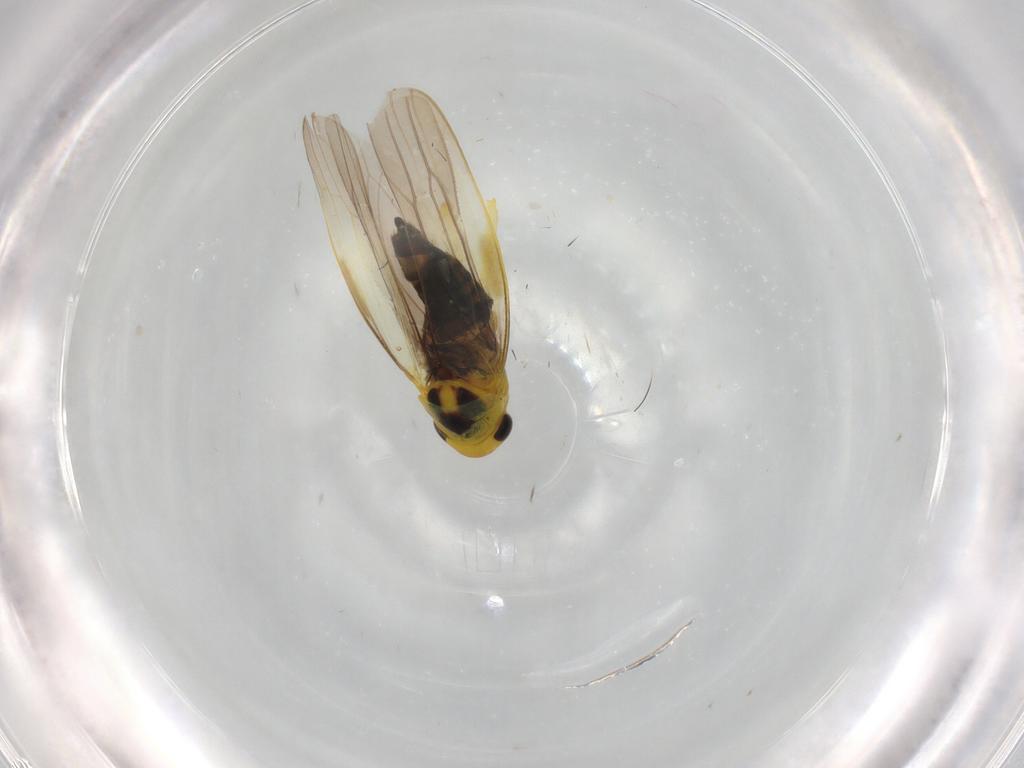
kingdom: Animalia
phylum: Arthropoda
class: Insecta
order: Hemiptera
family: Cicadellidae
